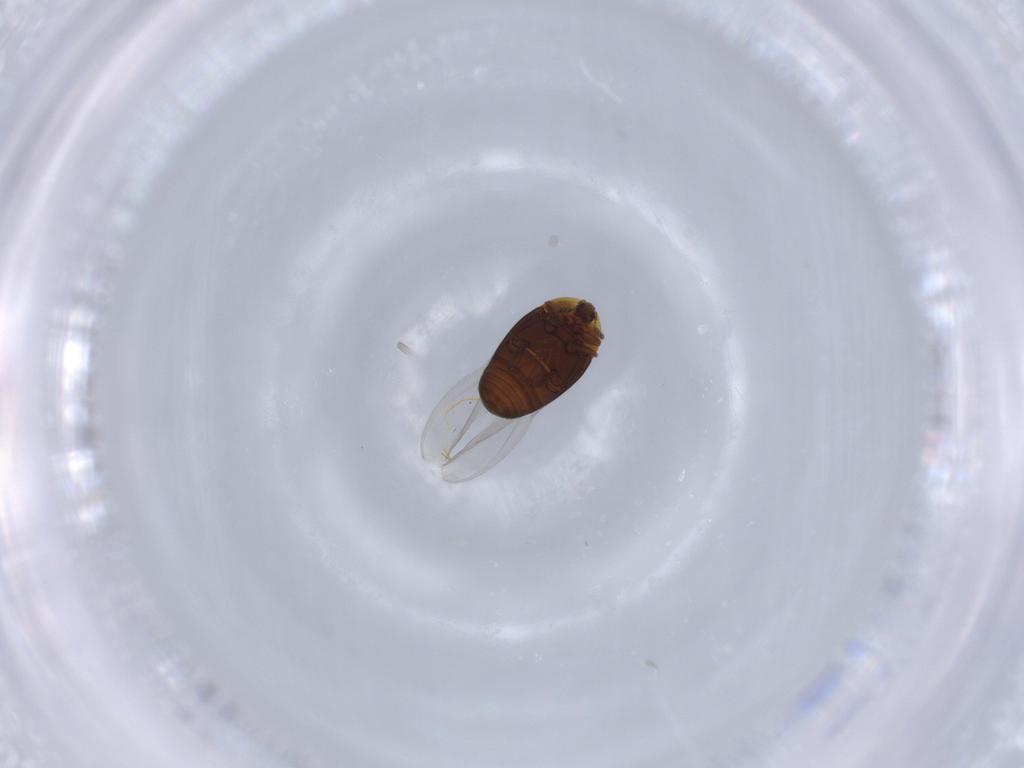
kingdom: Animalia
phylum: Arthropoda
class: Insecta
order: Coleoptera
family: Corylophidae
